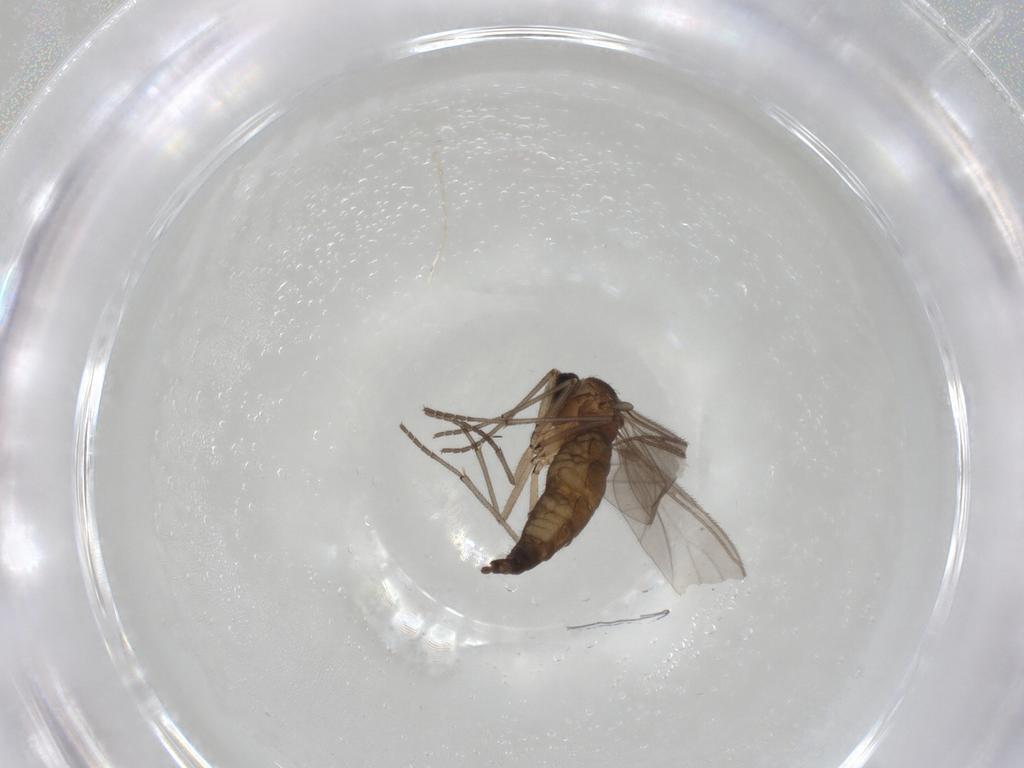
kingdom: Animalia
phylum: Arthropoda
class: Insecta
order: Diptera
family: Sciaridae
